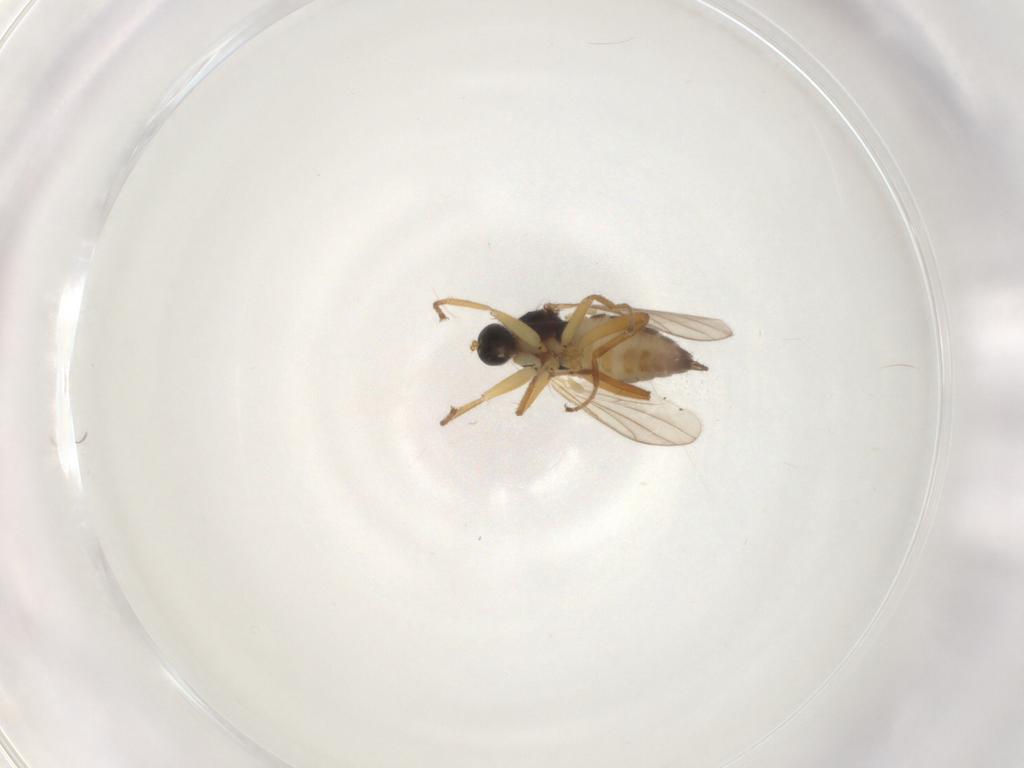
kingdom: Animalia
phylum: Arthropoda
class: Insecta
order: Diptera
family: Hybotidae
